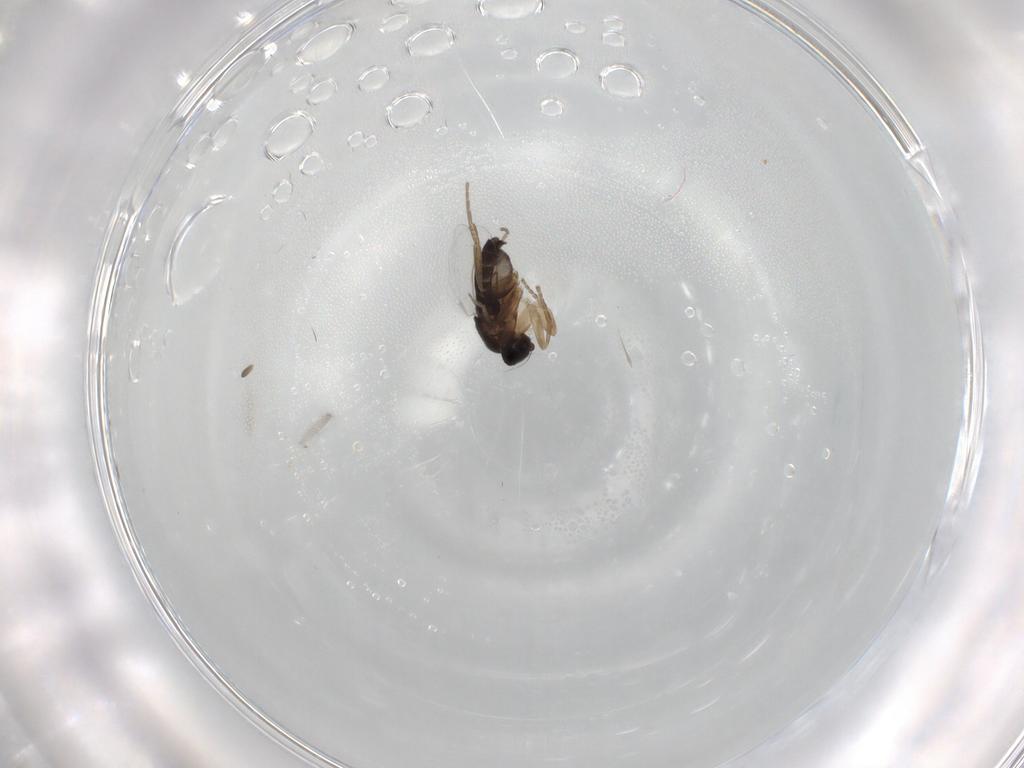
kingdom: Animalia
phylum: Arthropoda
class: Insecta
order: Diptera
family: Phoridae
